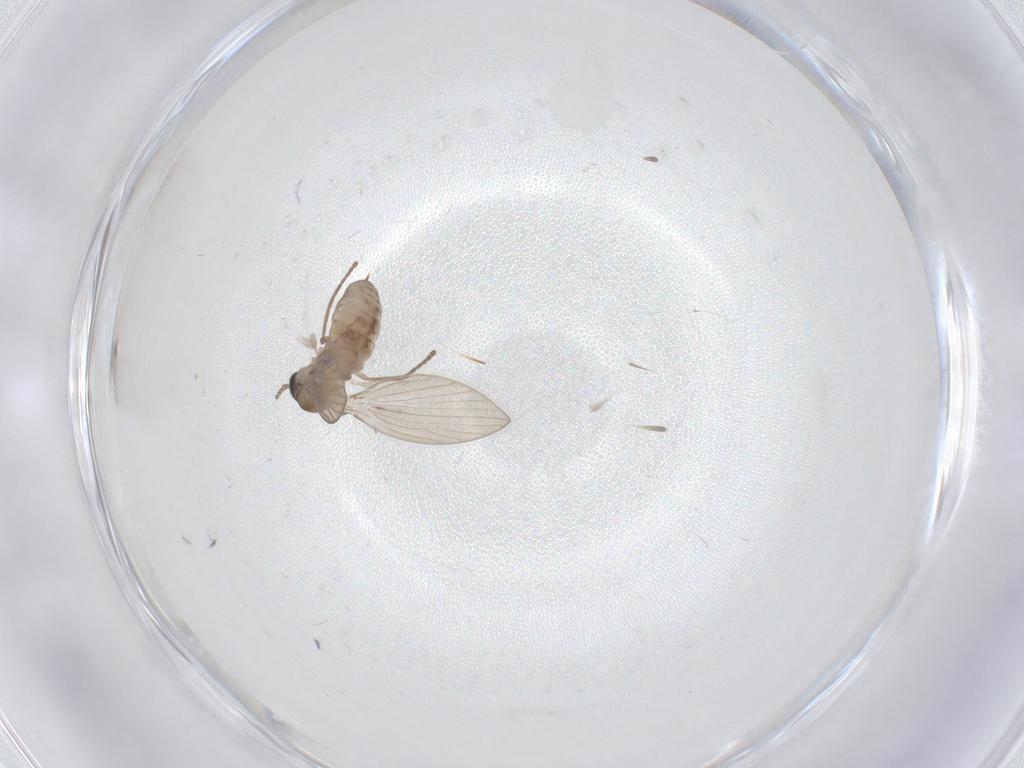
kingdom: Animalia
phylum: Arthropoda
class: Insecta
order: Diptera
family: Psychodidae
